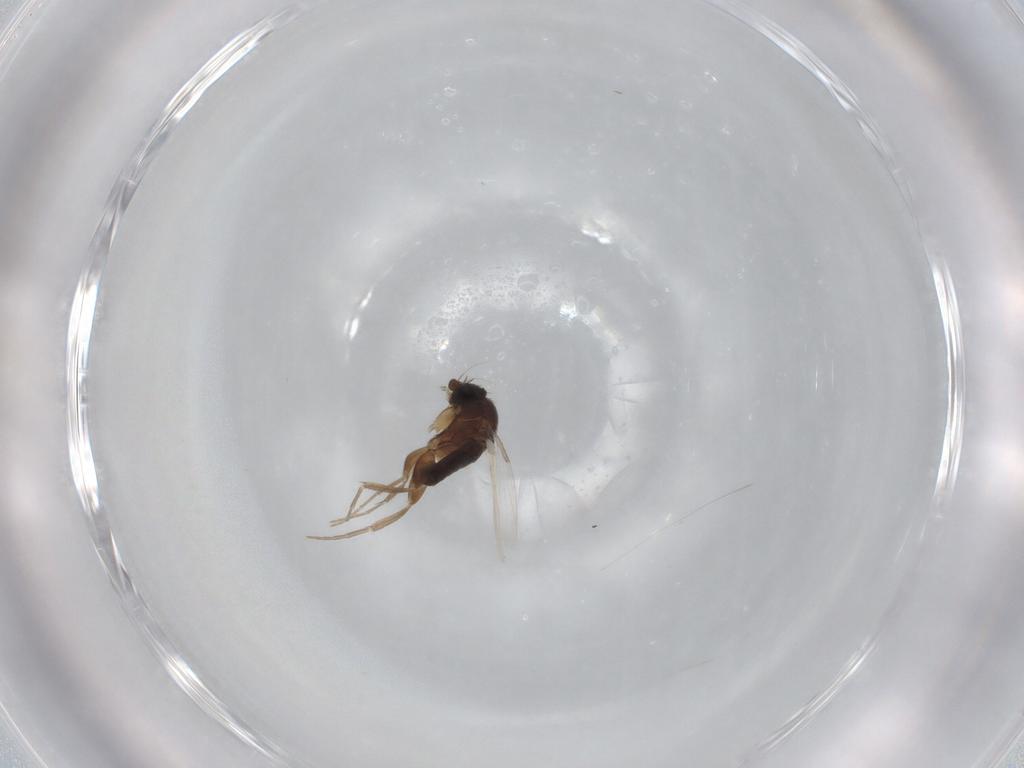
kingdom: Animalia
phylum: Arthropoda
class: Insecta
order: Diptera
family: Phoridae
